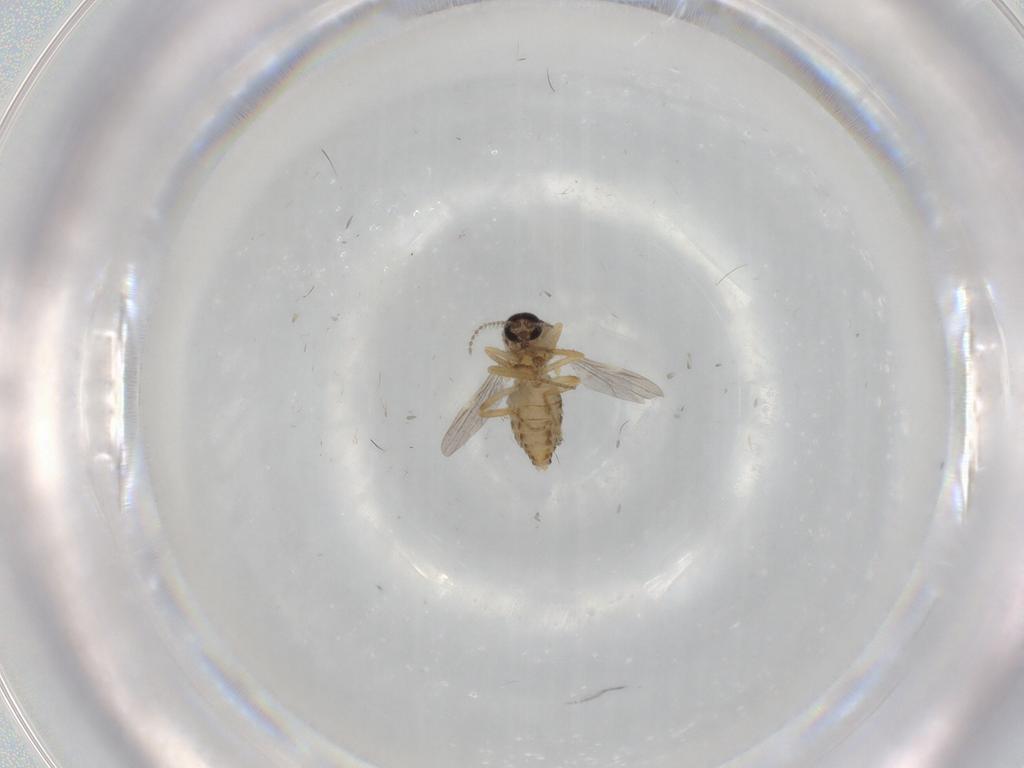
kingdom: Animalia
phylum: Arthropoda
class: Insecta
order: Diptera
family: Ceratopogonidae
